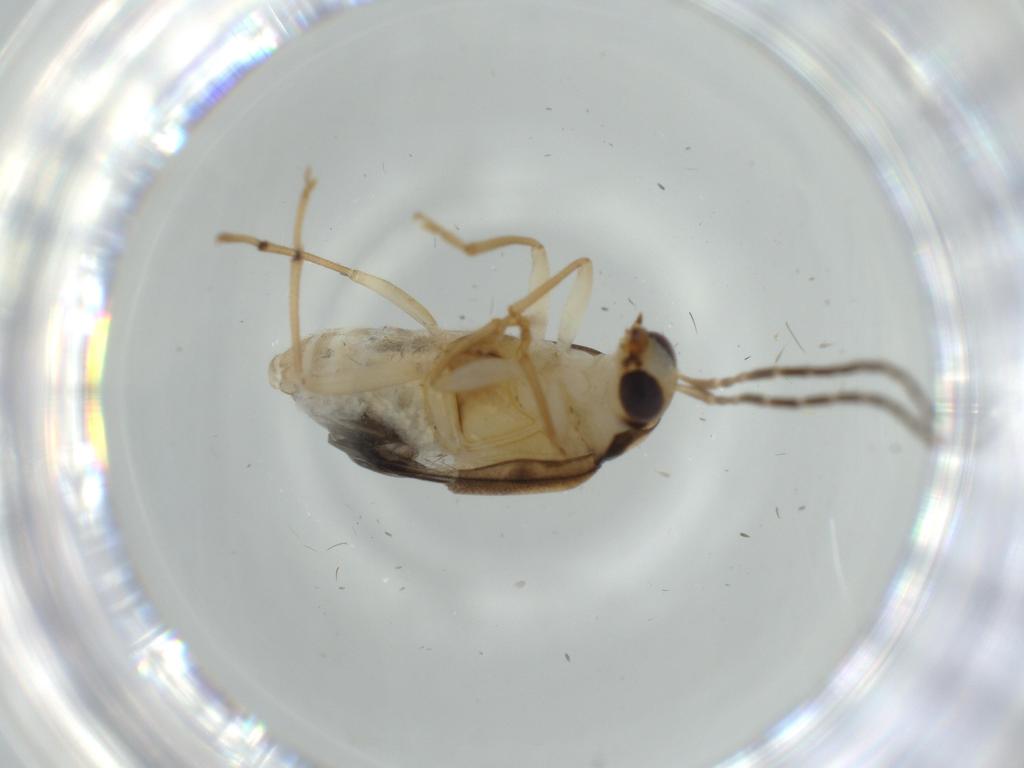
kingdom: Animalia
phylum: Arthropoda
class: Insecta
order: Coleoptera
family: Chrysomelidae
